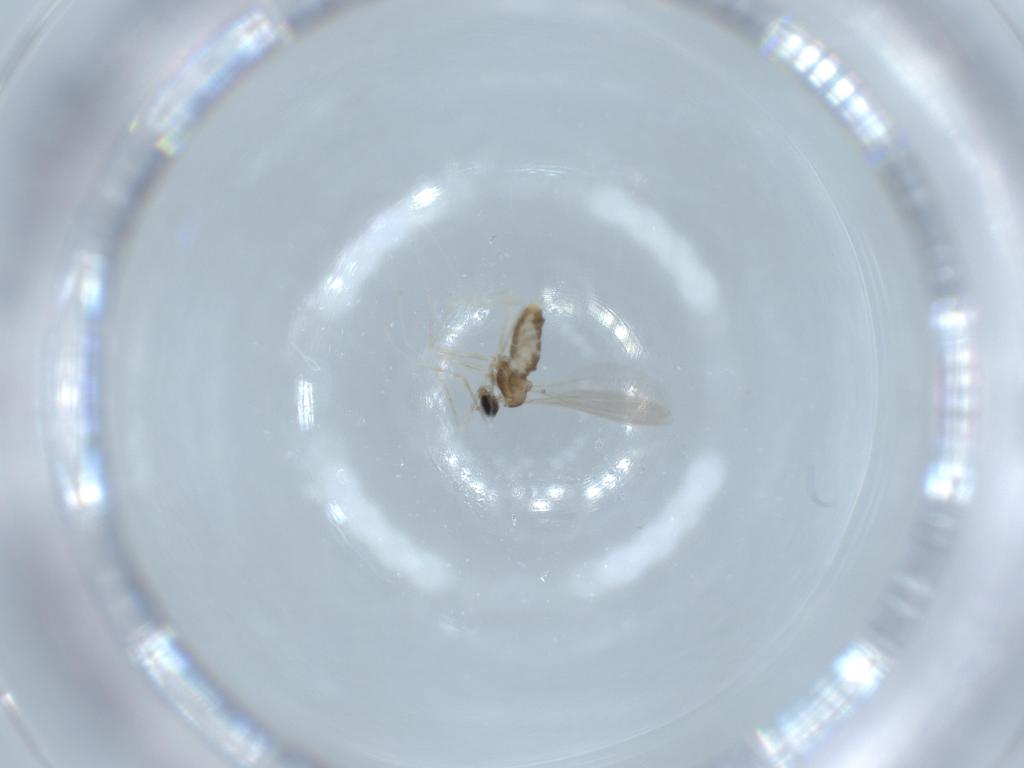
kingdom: Animalia
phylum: Arthropoda
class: Insecta
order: Diptera
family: Cecidomyiidae
